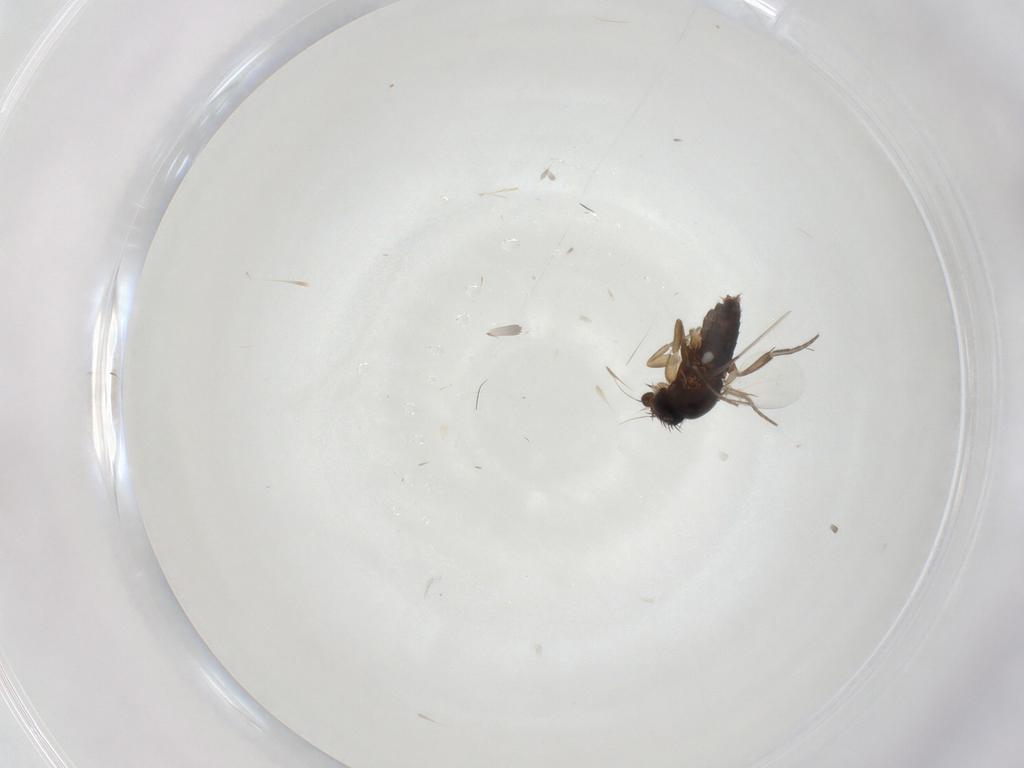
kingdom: Animalia
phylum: Arthropoda
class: Insecta
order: Diptera
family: Phoridae
